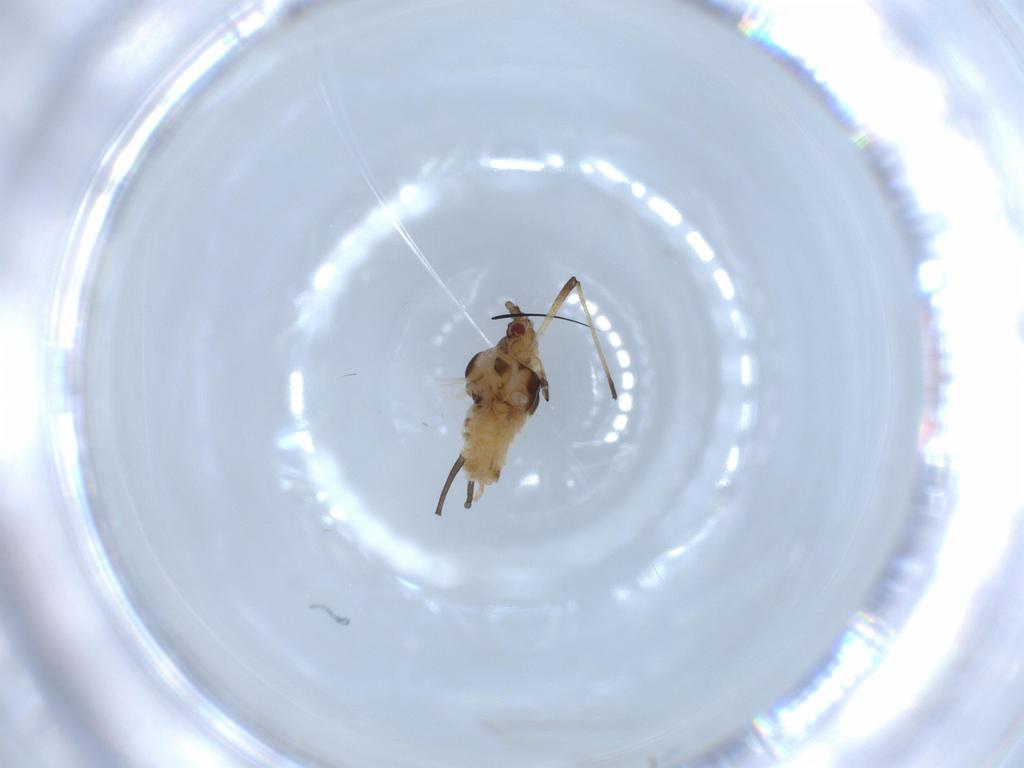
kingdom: Animalia
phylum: Arthropoda
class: Insecta
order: Hemiptera
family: Aphididae
